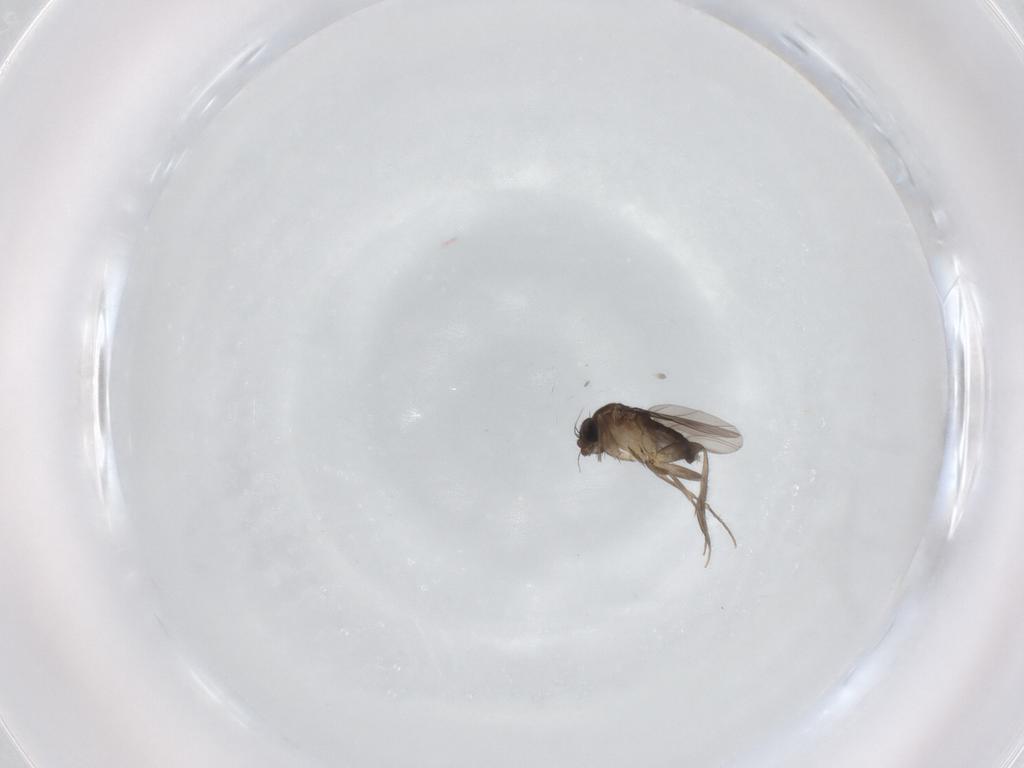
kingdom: Animalia
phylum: Arthropoda
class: Insecta
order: Diptera
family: Phoridae
